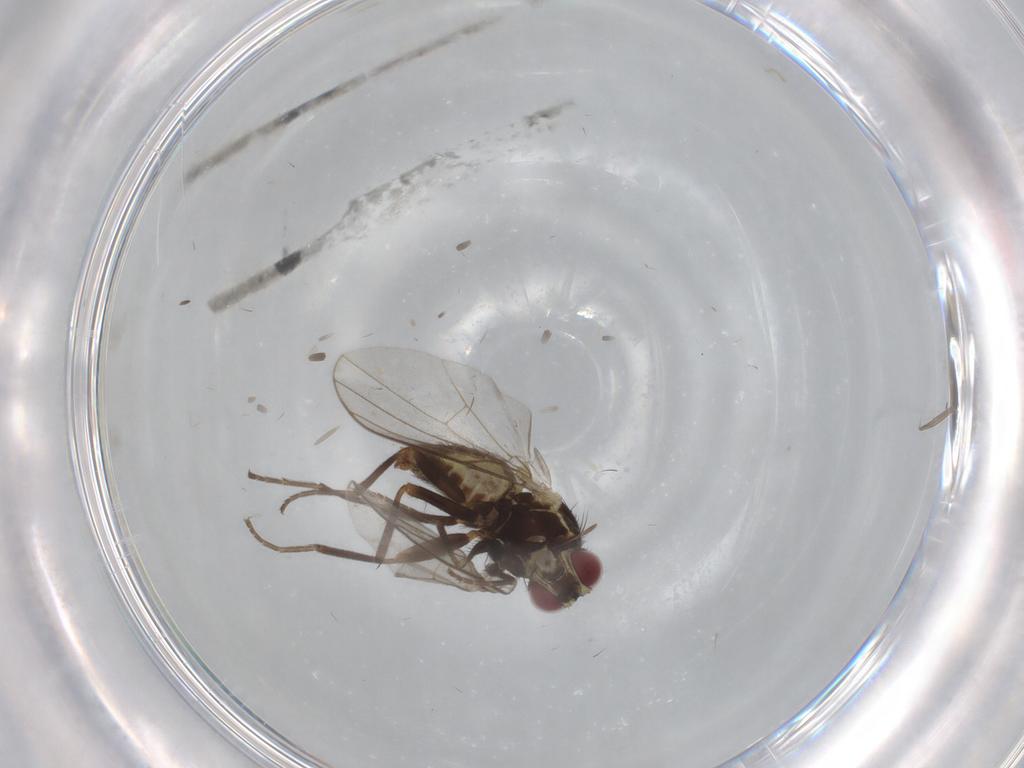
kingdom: Animalia
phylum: Arthropoda
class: Insecta
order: Diptera
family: Agromyzidae
